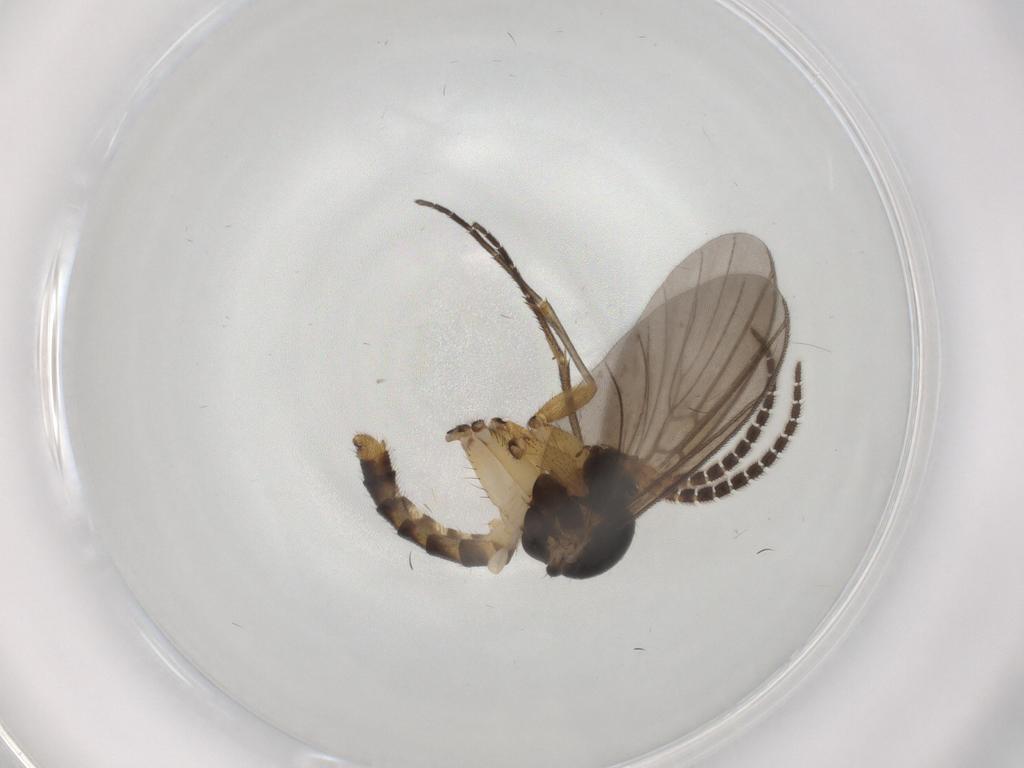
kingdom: Animalia
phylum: Arthropoda
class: Insecta
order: Diptera
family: Mycetophilidae
